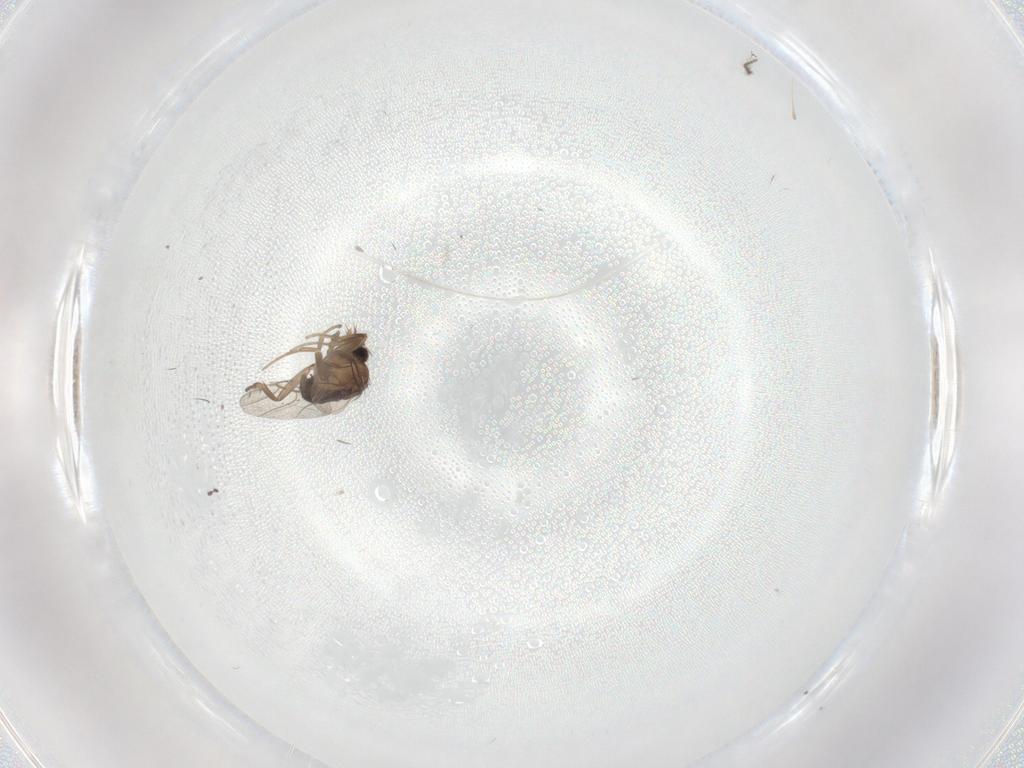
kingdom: Animalia
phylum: Arthropoda
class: Insecta
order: Diptera
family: Phoridae
